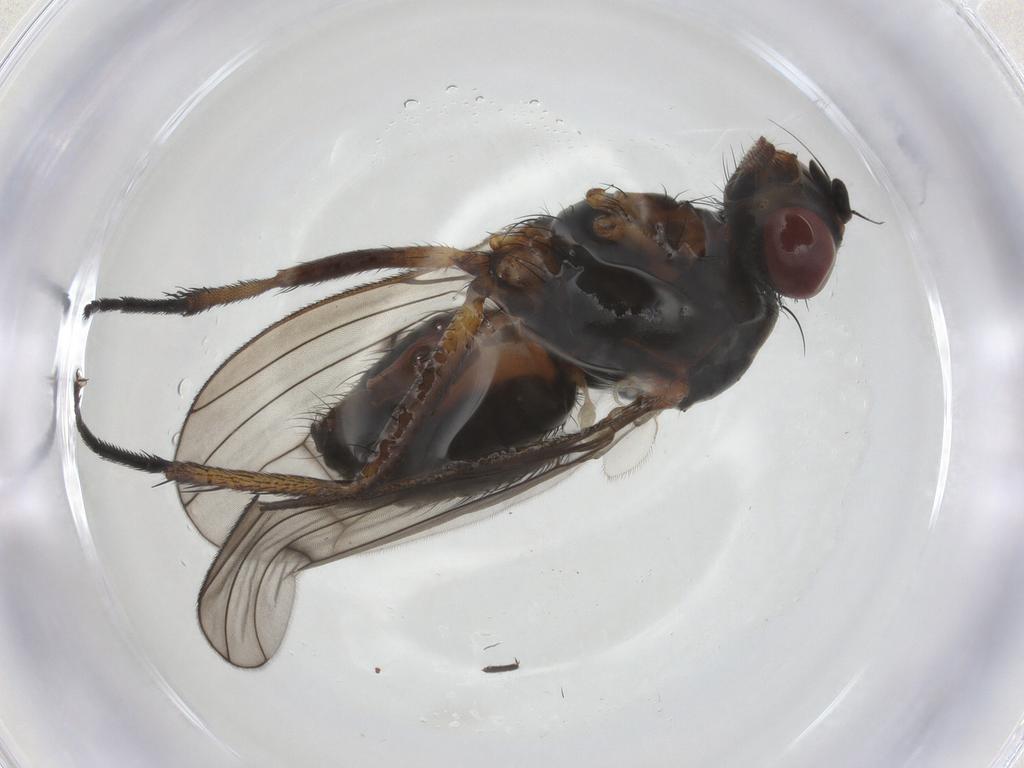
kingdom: Animalia
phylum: Arthropoda
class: Insecta
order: Diptera
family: Anthomyiidae
